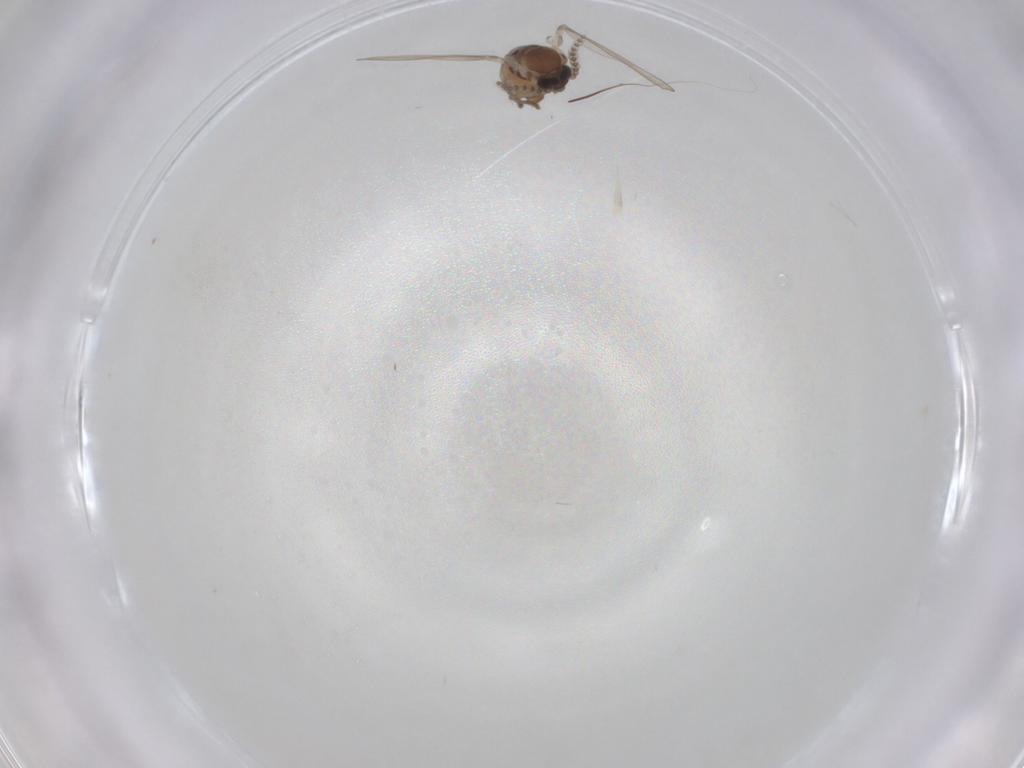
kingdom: Animalia
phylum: Arthropoda
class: Insecta
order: Diptera
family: Psychodidae
